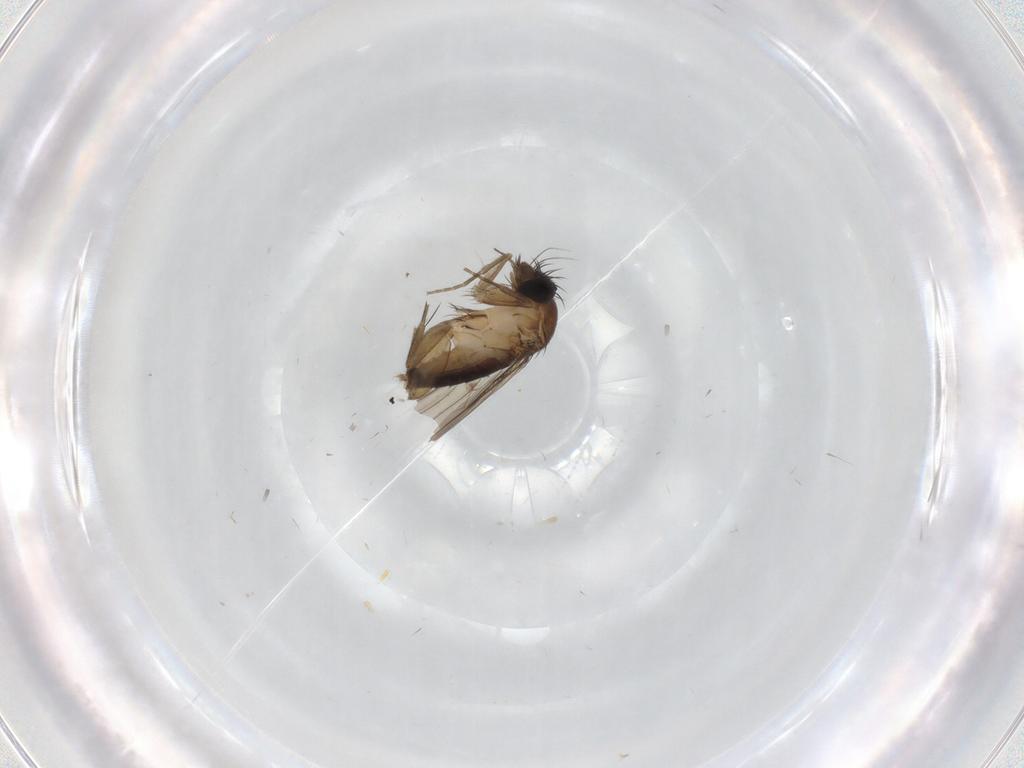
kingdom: Animalia
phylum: Arthropoda
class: Insecta
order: Diptera
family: Phoridae
